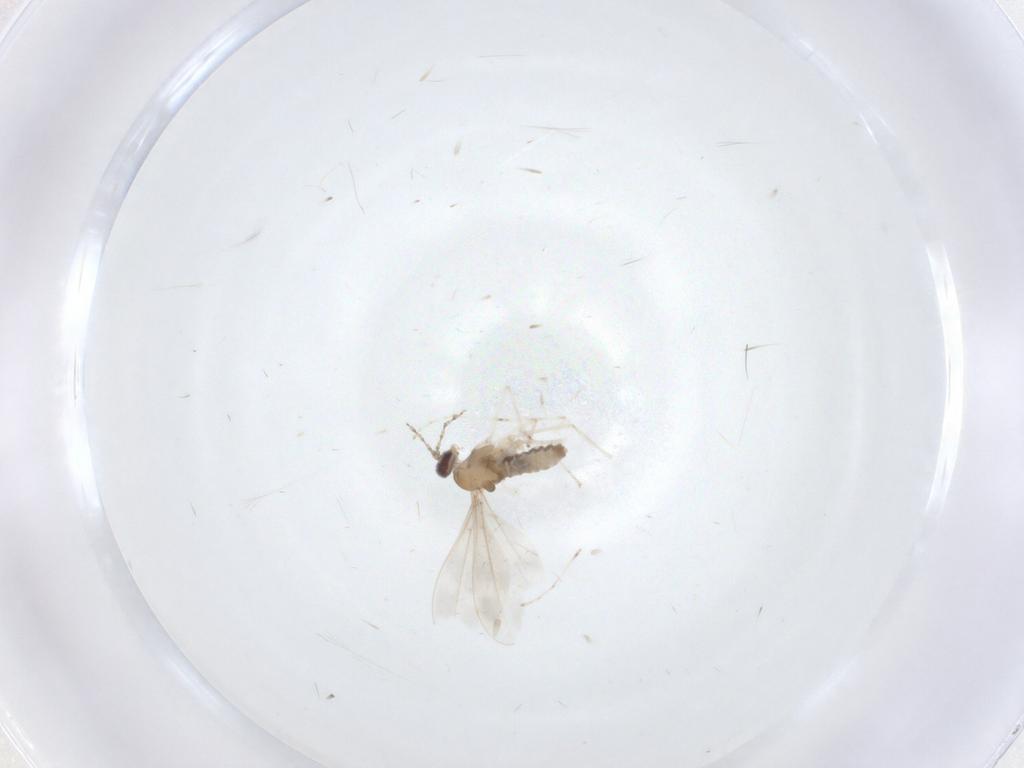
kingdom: Animalia
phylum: Arthropoda
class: Insecta
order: Diptera
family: Cecidomyiidae
